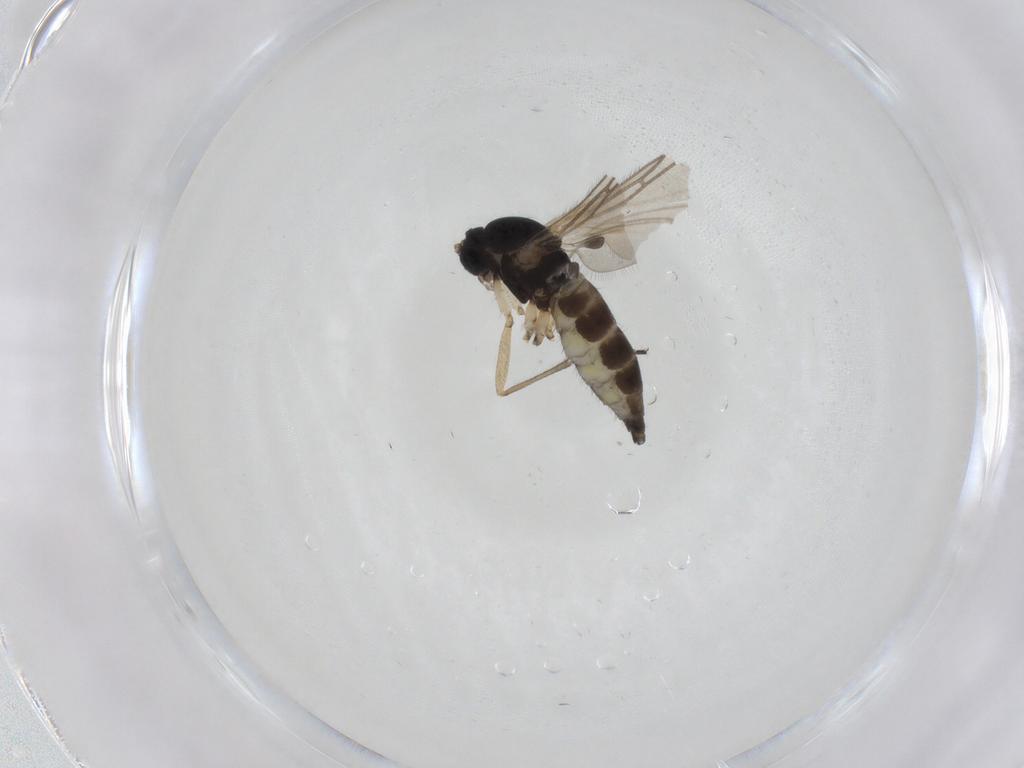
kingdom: Animalia
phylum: Arthropoda
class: Insecta
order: Diptera
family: Sciaridae
